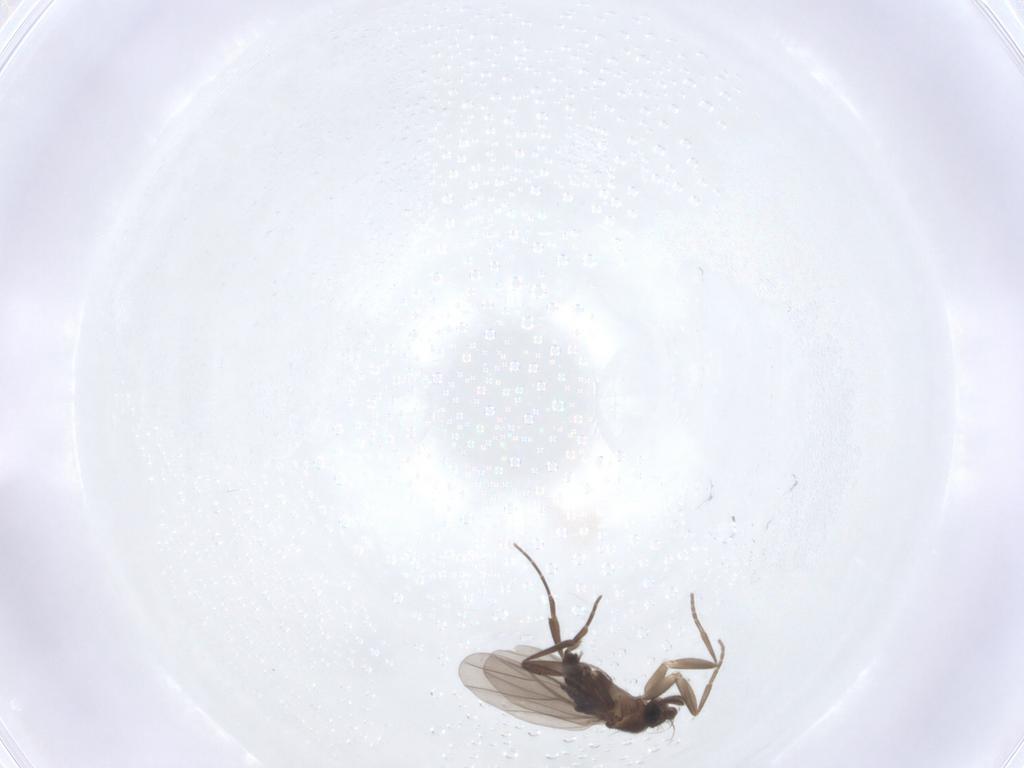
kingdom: Animalia
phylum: Arthropoda
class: Insecta
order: Diptera
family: Phoridae
